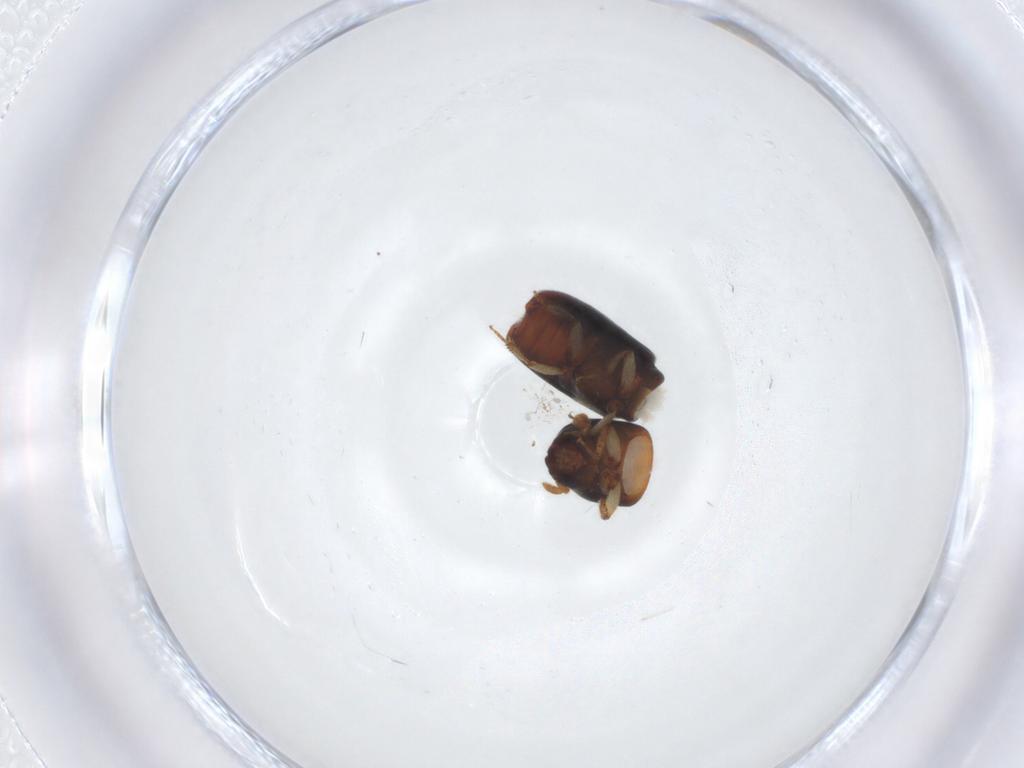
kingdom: Animalia
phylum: Arthropoda
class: Insecta
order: Coleoptera
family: Curculionidae
